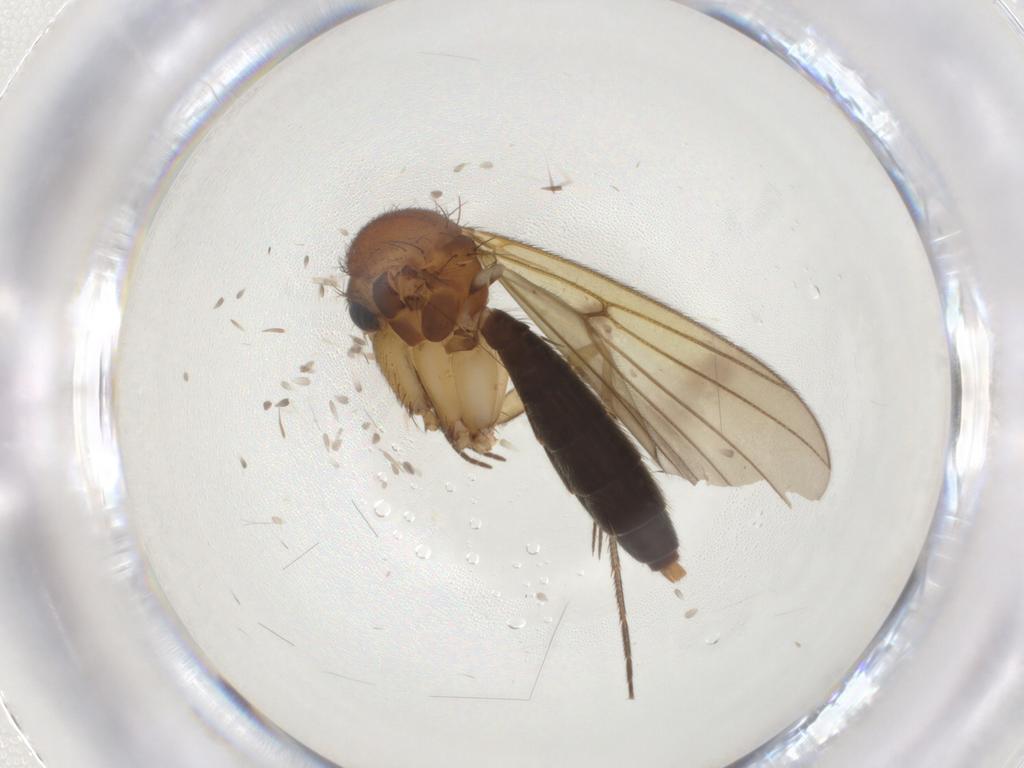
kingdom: Animalia
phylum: Arthropoda
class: Insecta
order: Diptera
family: Mycetophilidae
